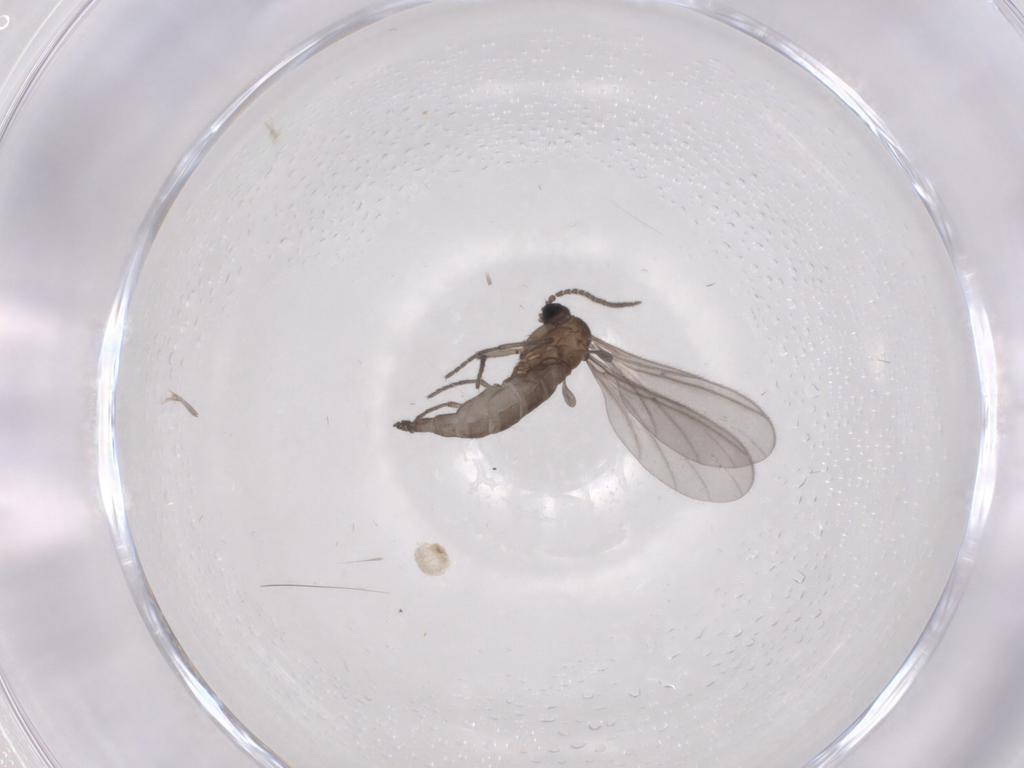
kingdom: Animalia
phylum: Arthropoda
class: Insecta
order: Diptera
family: Sciaridae
